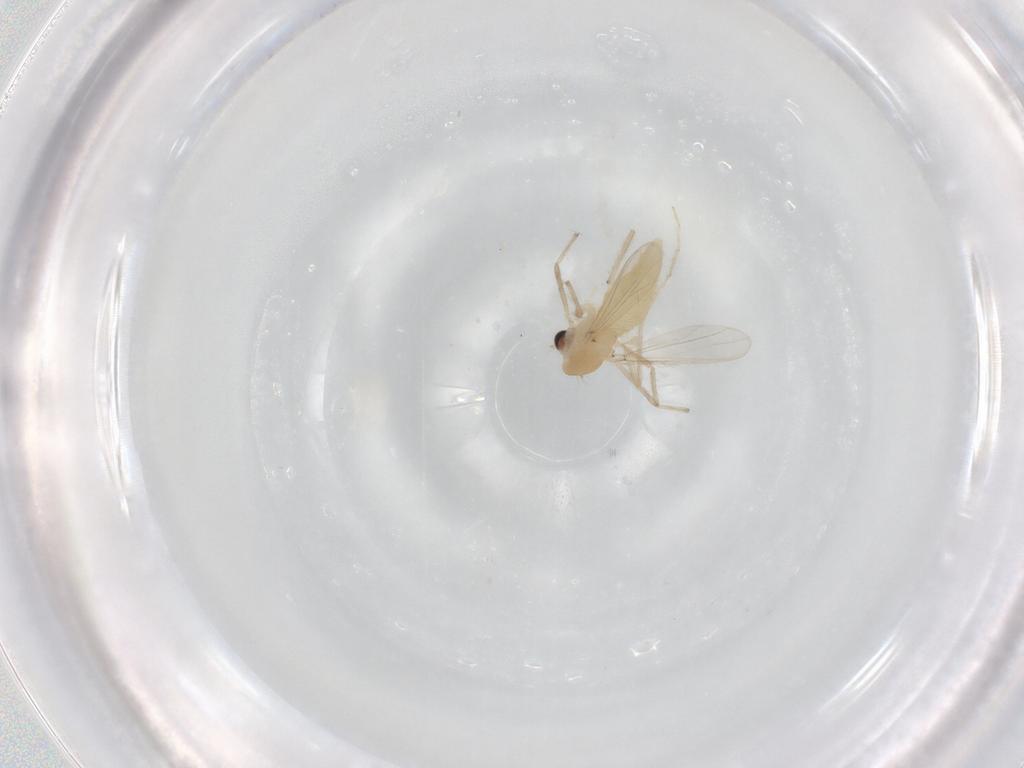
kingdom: Animalia
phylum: Arthropoda
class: Insecta
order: Diptera
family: Chironomidae
